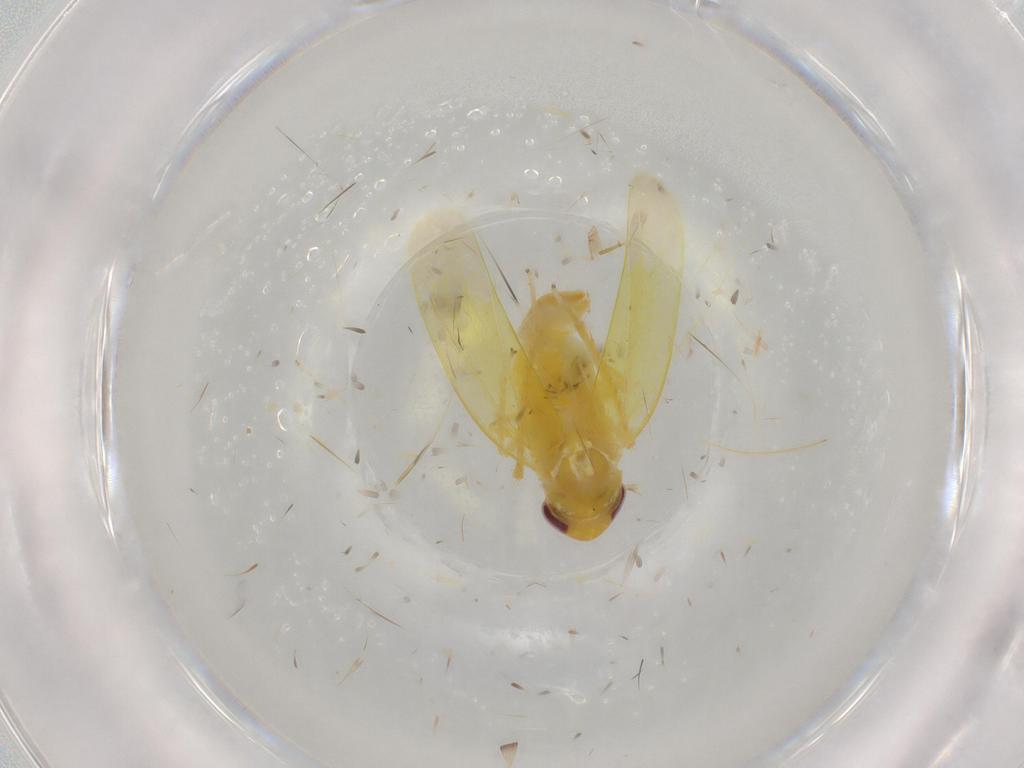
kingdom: Animalia
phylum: Arthropoda
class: Insecta
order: Hemiptera
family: Cicadellidae
